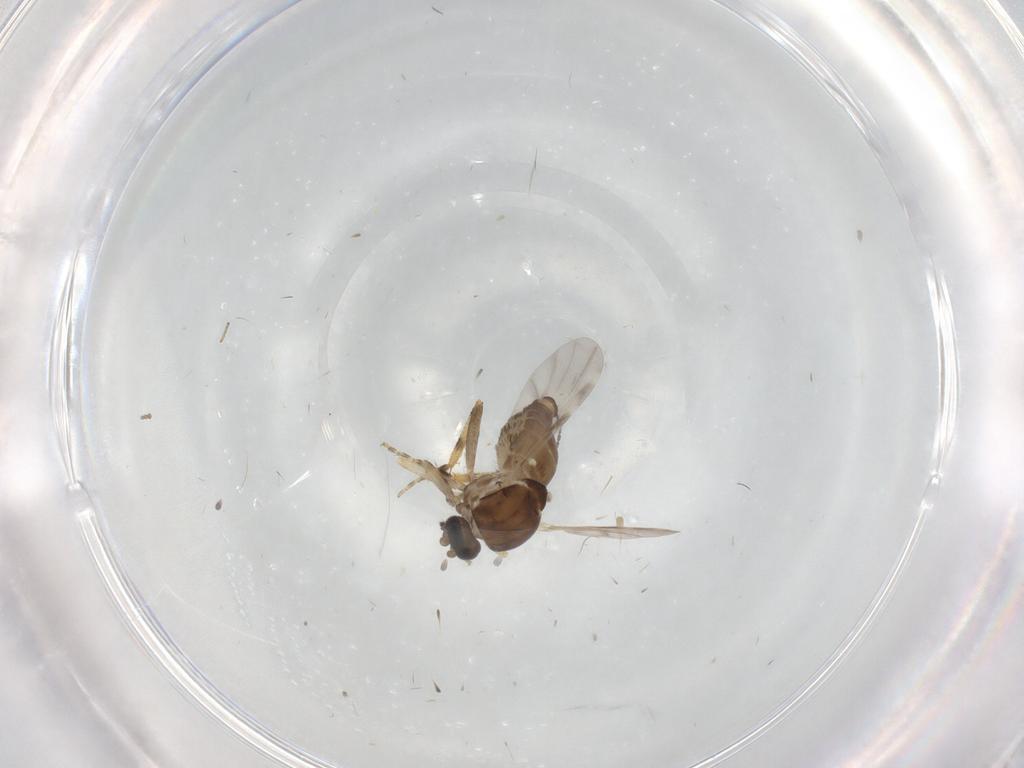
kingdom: Animalia
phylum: Arthropoda
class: Insecta
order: Diptera
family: Ceratopogonidae
